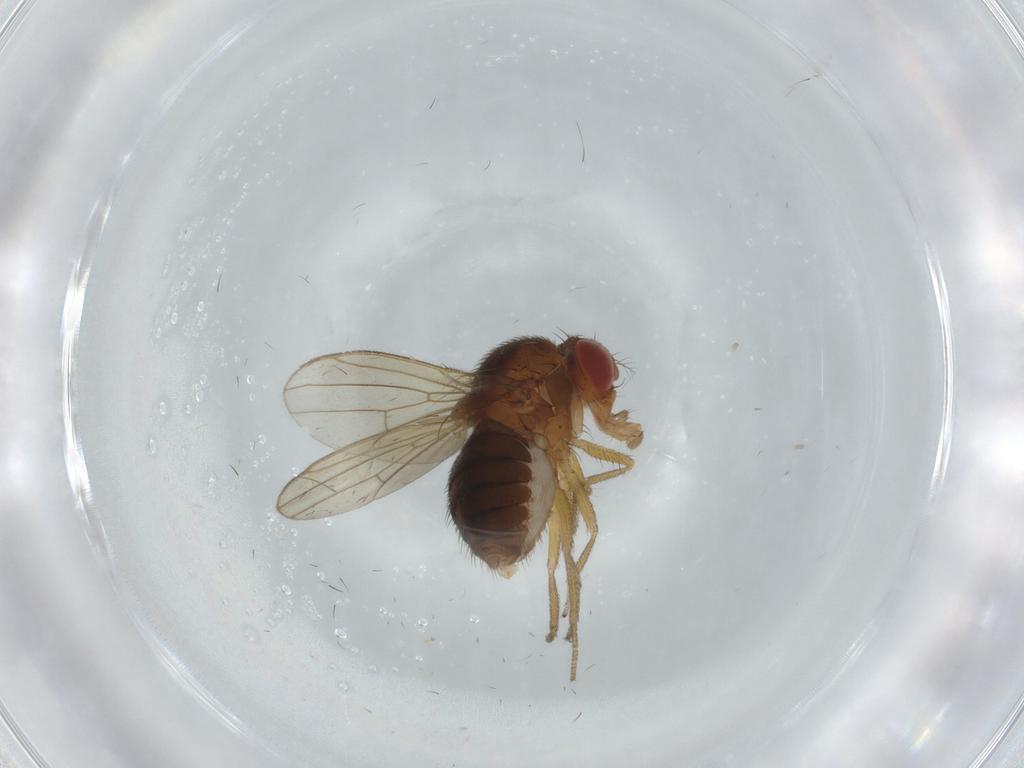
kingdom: Animalia
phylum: Arthropoda
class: Insecta
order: Diptera
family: Drosophilidae
